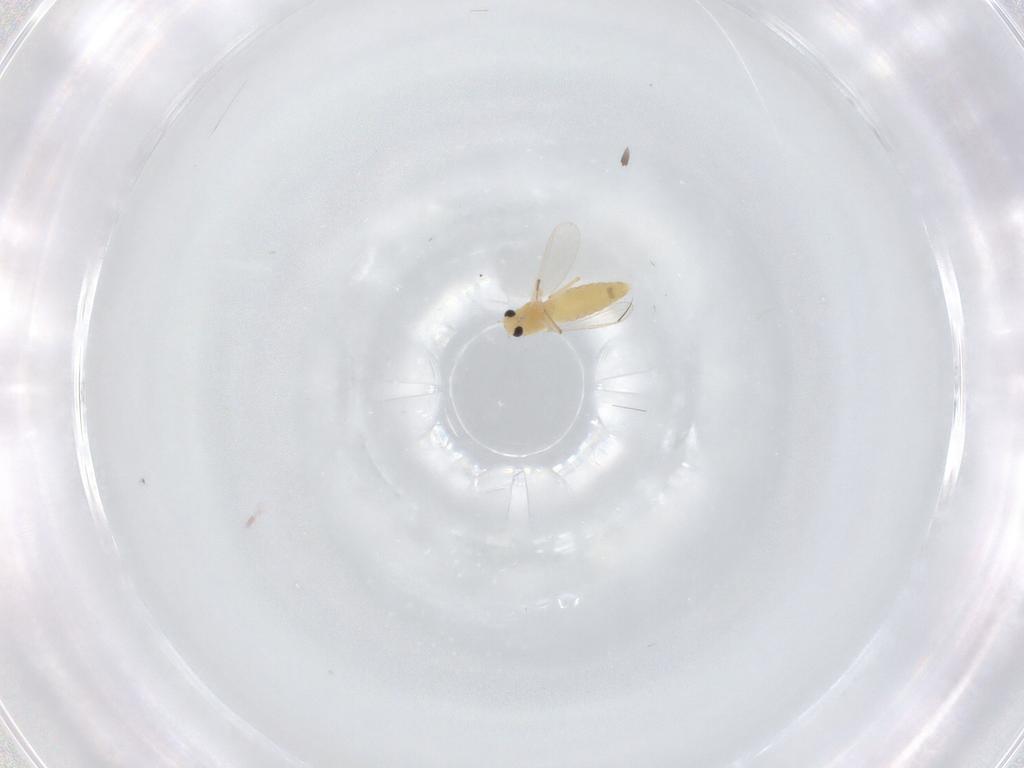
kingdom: Animalia
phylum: Arthropoda
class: Insecta
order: Diptera
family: Chironomidae
